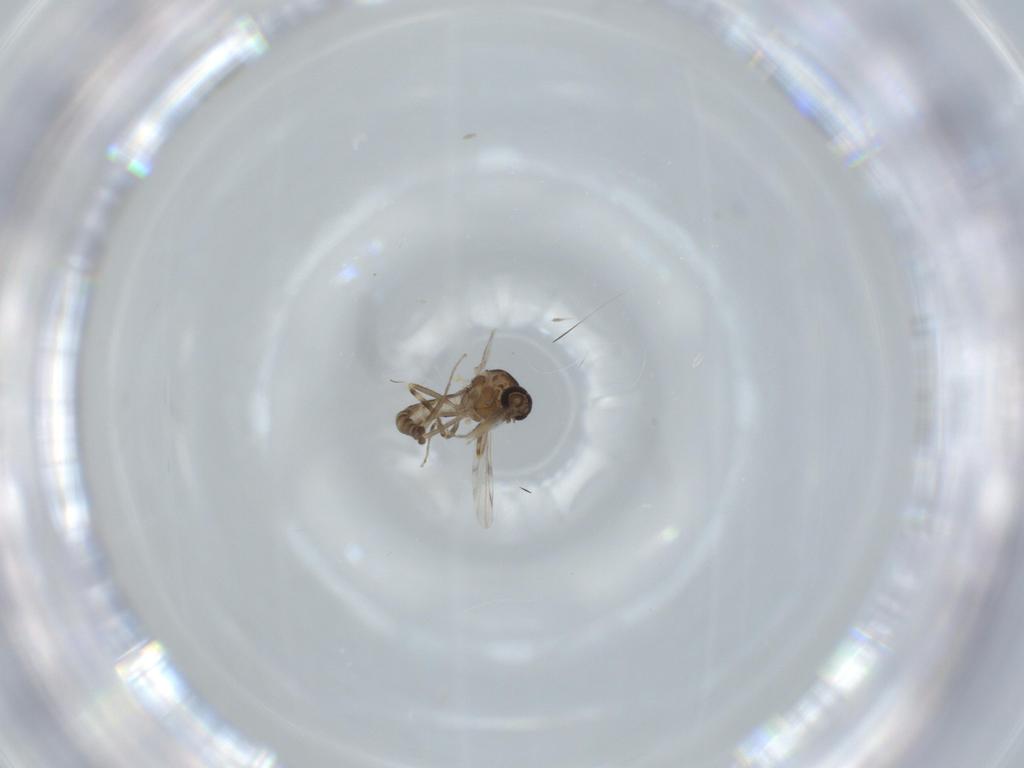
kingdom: Animalia
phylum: Arthropoda
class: Insecta
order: Diptera
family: Ceratopogonidae
